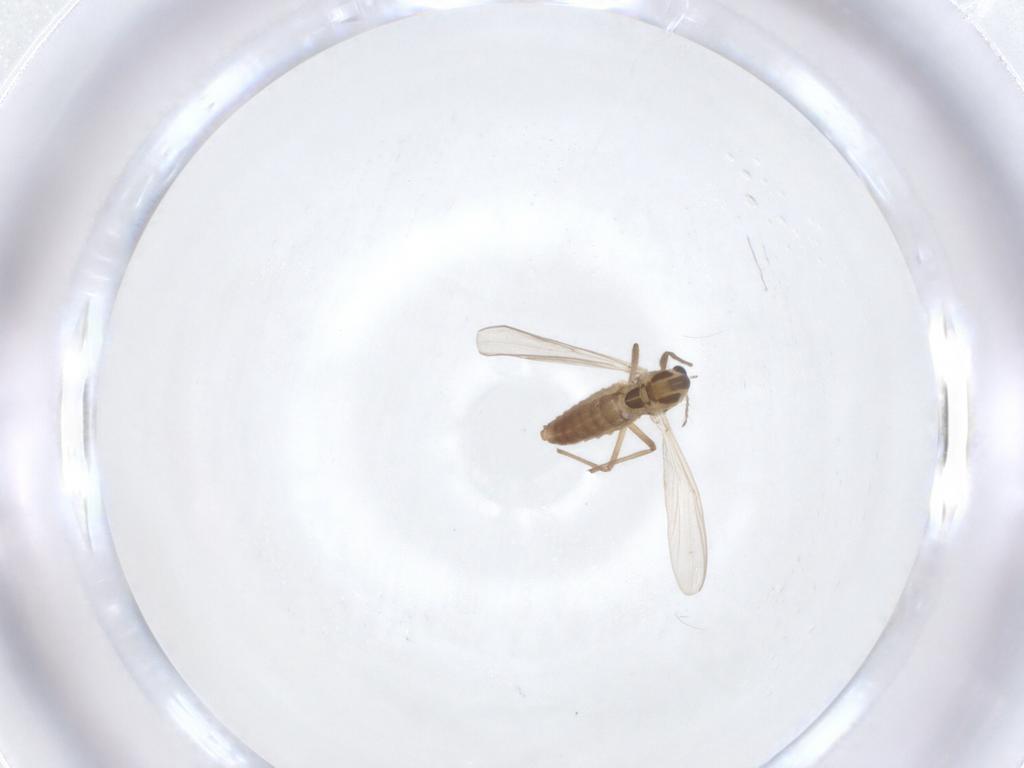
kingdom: Animalia
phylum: Arthropoda
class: Insecta
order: Diptera
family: Chironomidae
